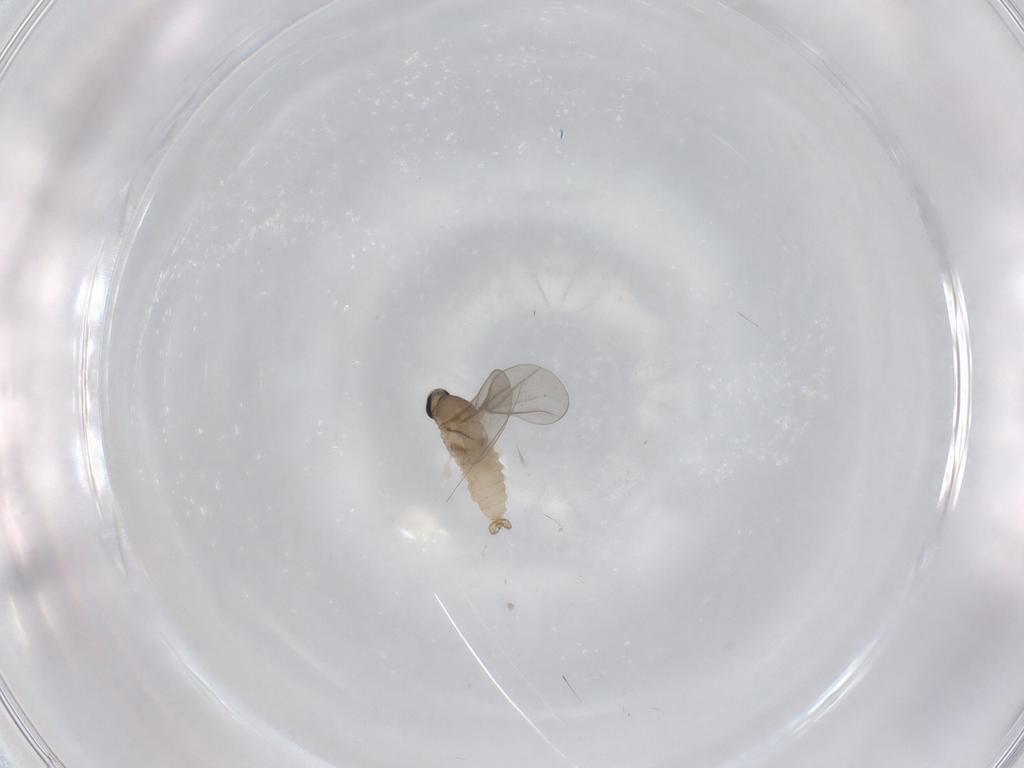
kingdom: Animalia
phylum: Arthropoda
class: Insecta
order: Diptera
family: Cecidomyiidae
